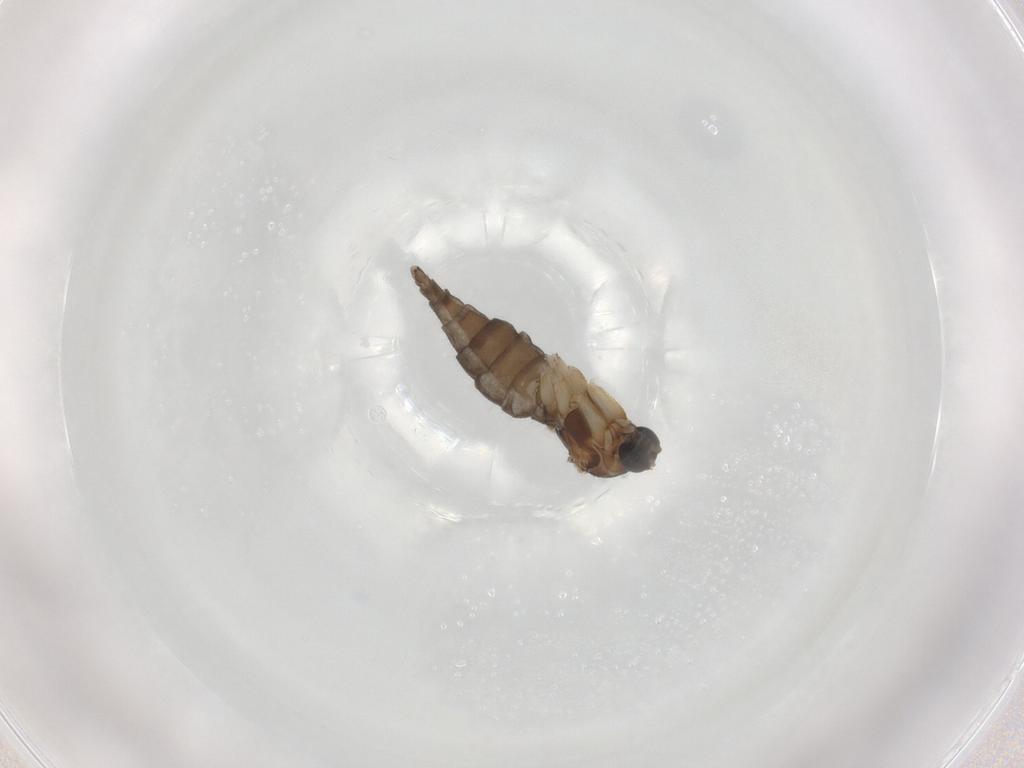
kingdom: Animalia
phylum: Arthropoda
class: Insecta
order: Diptera
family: Sciaridae
